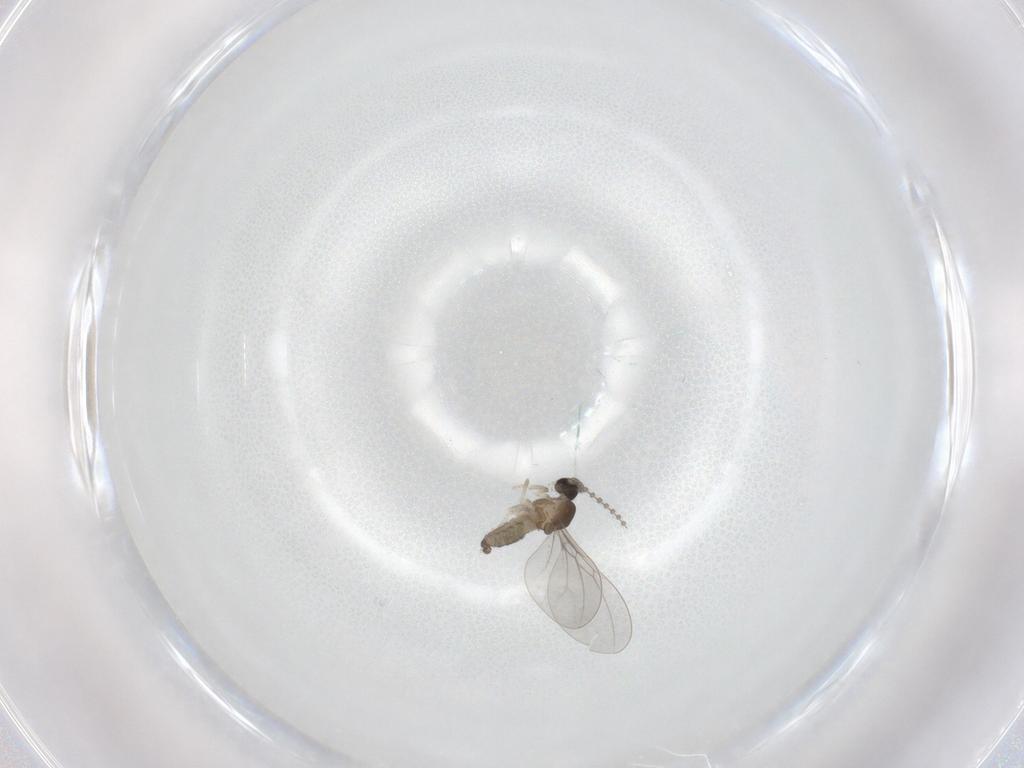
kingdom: Animalia
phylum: Arthropoda
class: Insecta
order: Diptera
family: Cecidomyiidae
